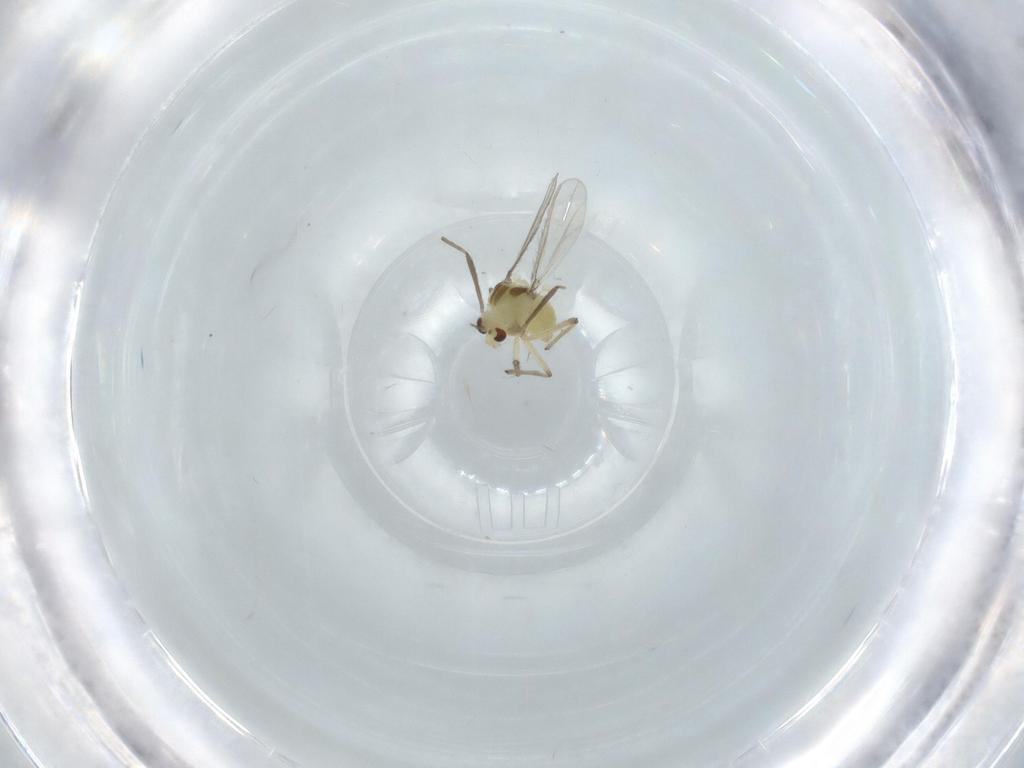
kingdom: Animalia
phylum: Arthropoda
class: Insecta
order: Diptera
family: Chironomidae
